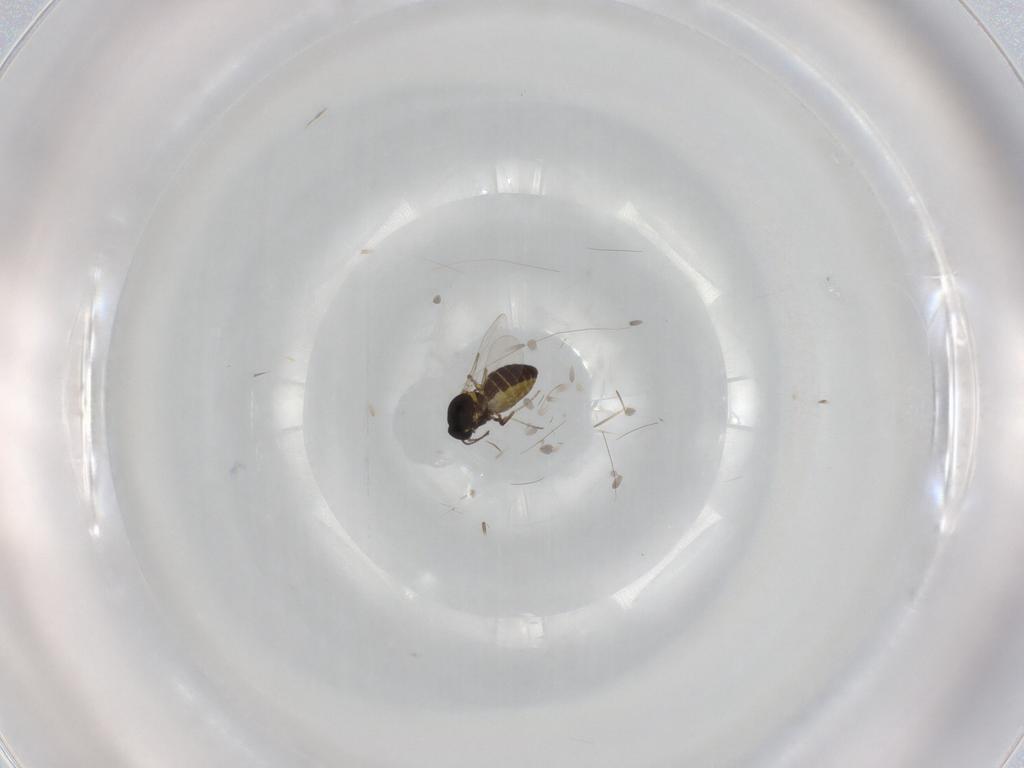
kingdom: Animalia
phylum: Arthropoda
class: Insecta
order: Diptera
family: Ceratopogonidae
